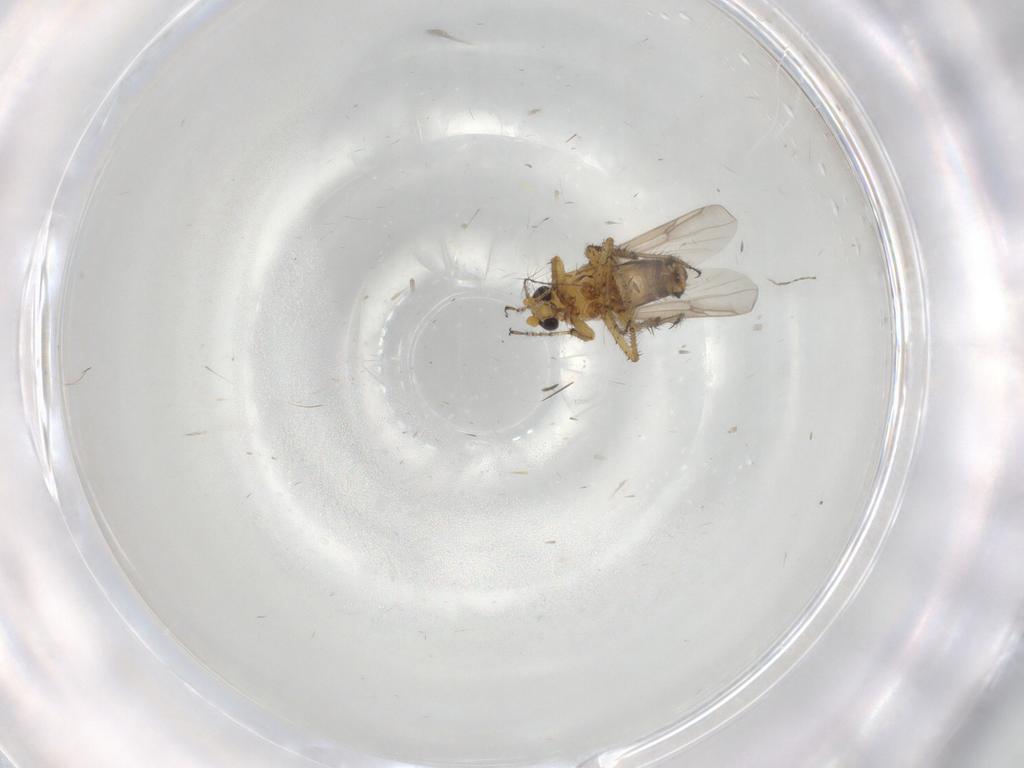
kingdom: Animalia
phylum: Arthropoda
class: Insecta
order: Diptera
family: Ceratopogonidae
